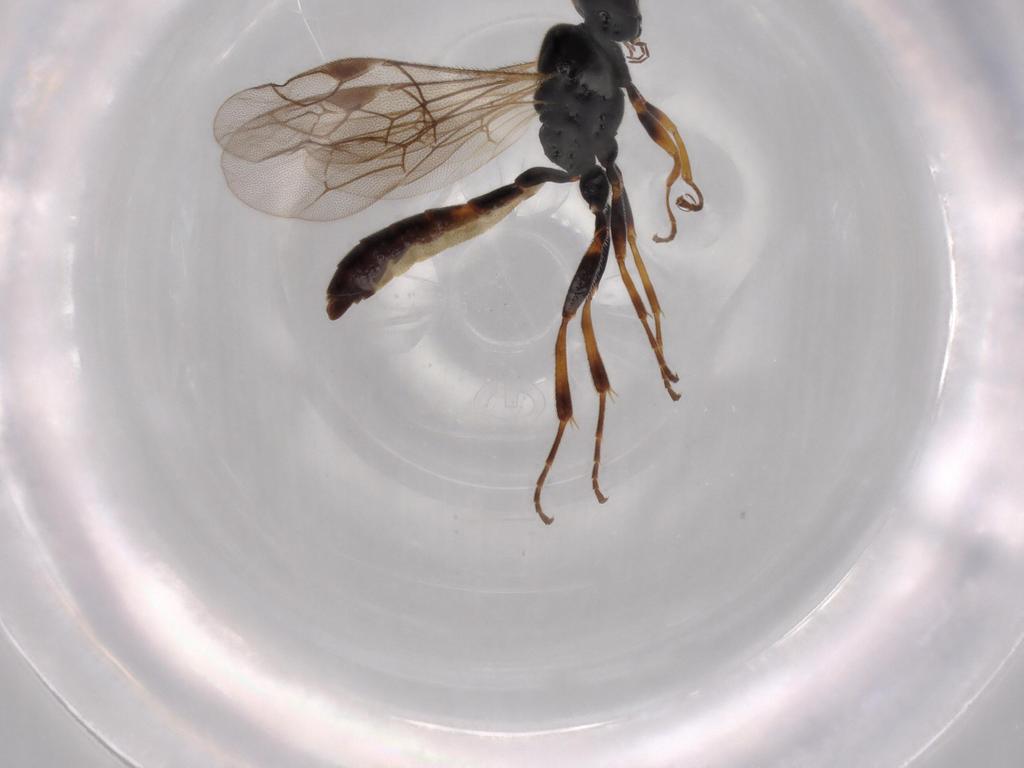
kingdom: Animalia
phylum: Arthropoda
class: Insecta
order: Hymenoptera
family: Ichneumonidae
